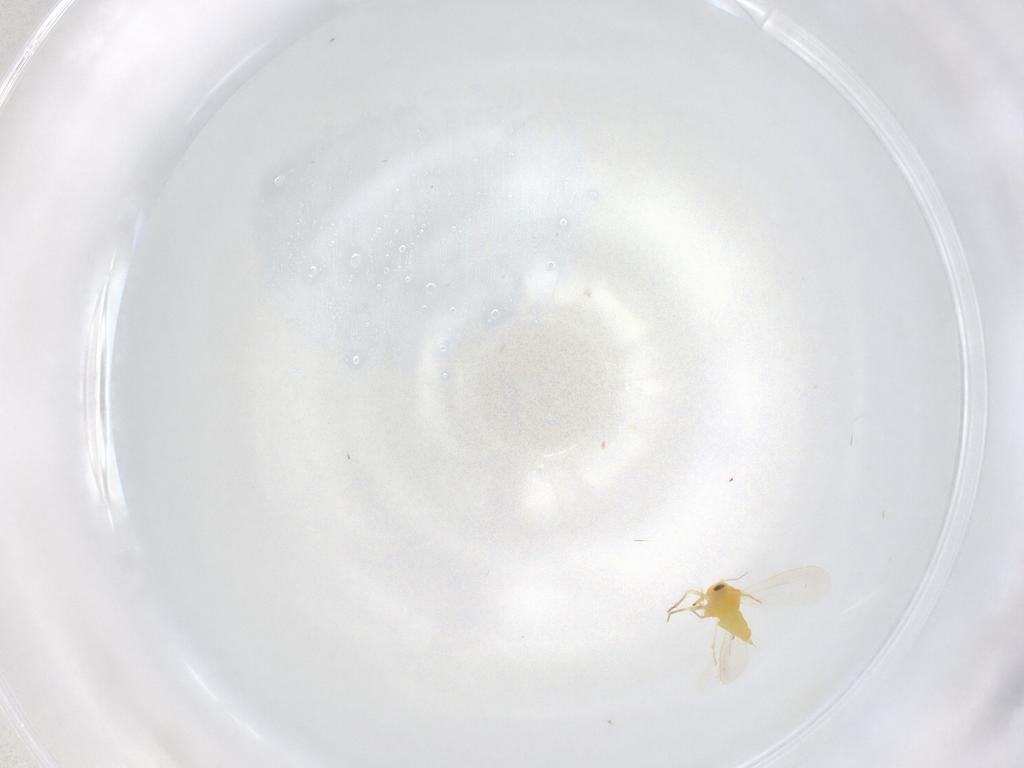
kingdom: Animalia
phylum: Arthropoda
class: Insecta
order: Hemiptera
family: Aleyrodidae
